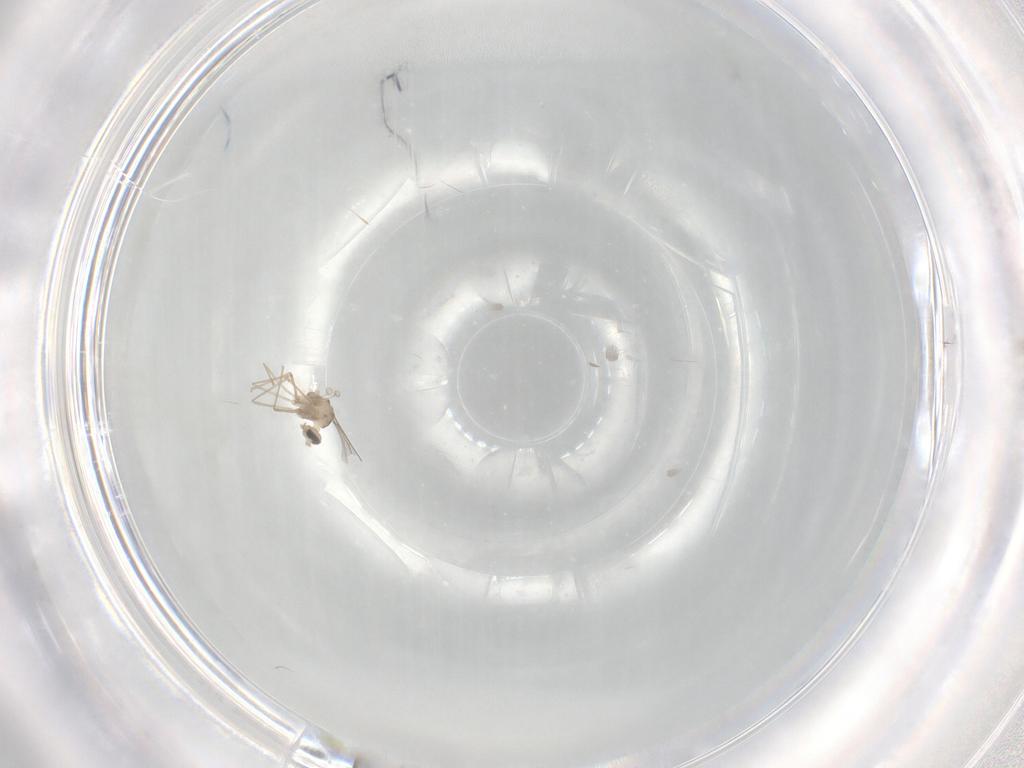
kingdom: Animalia
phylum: Arthropoda
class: Insecta
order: Diptera
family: Cecidomyiidae
